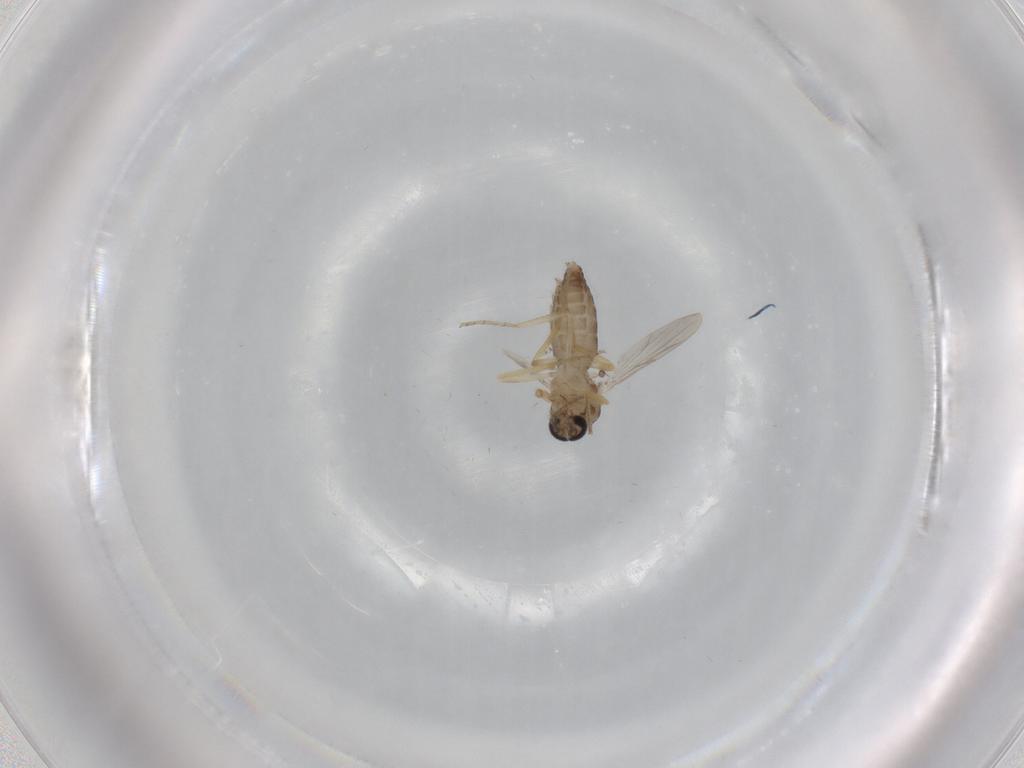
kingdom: Animalia
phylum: Arthropoda
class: Insecta
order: Diptera
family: Ceratopogonidae
